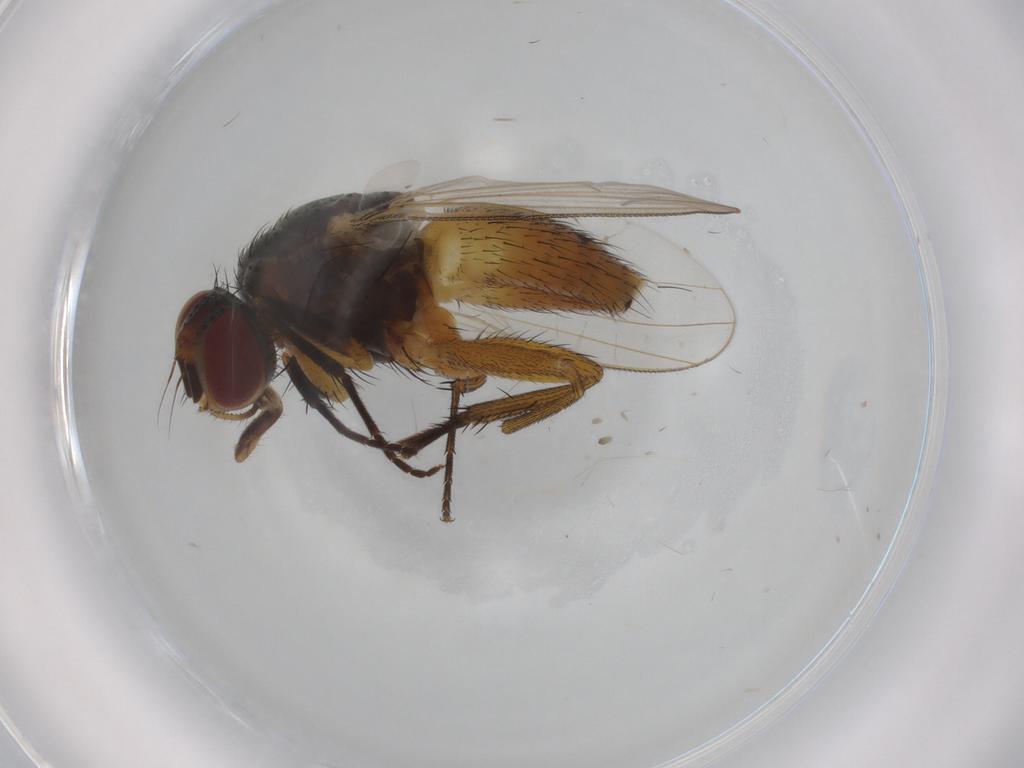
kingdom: Animalia
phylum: Arthropoda
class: Insecta
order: Diptera
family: Muscidae
